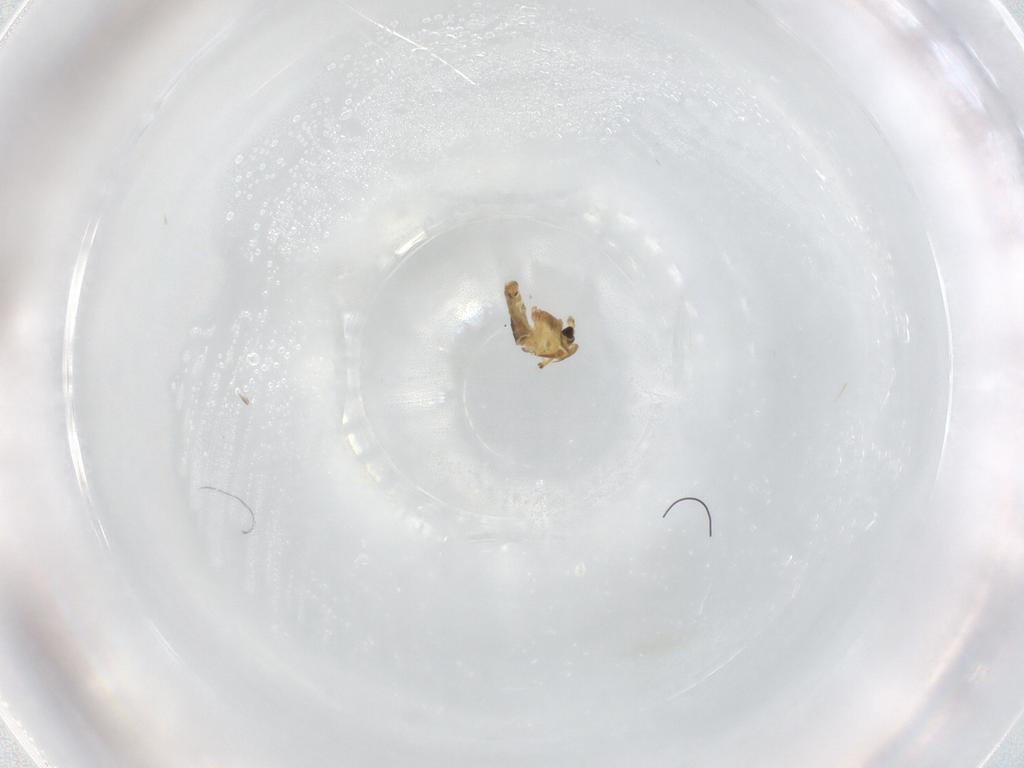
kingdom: Animalia
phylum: Arthropoda
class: Insecta
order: Diptera
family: Chironomidae
